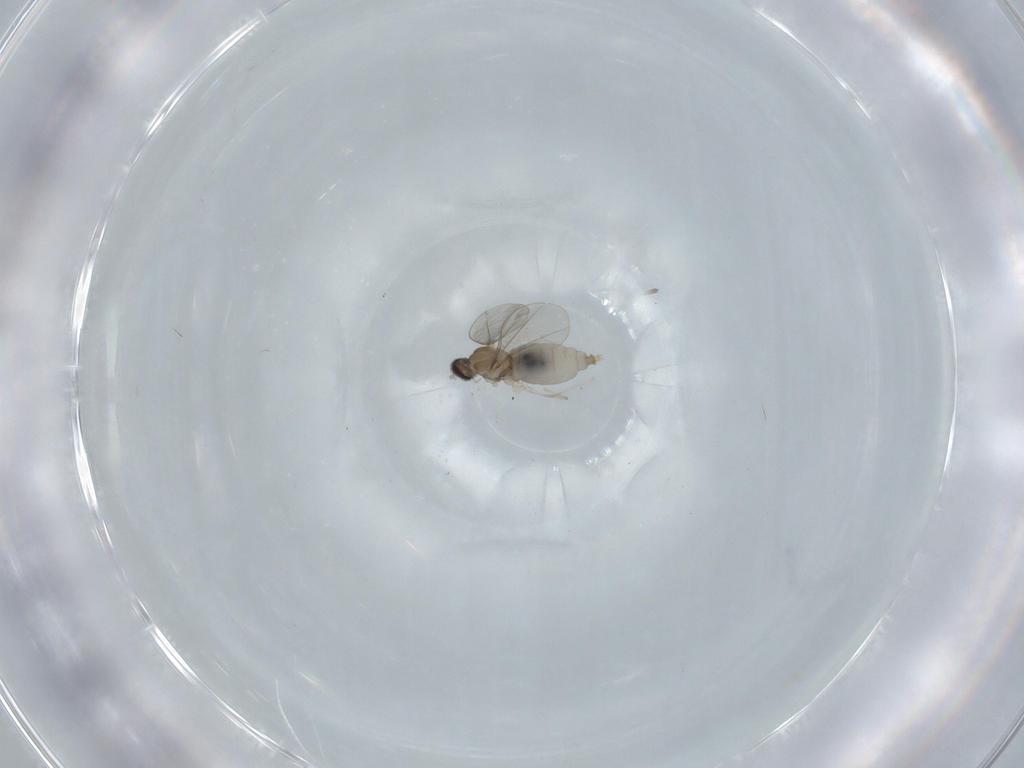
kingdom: Animalia
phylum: Arthropoda
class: Insecta
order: Diptera
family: Cecidomyiidae
